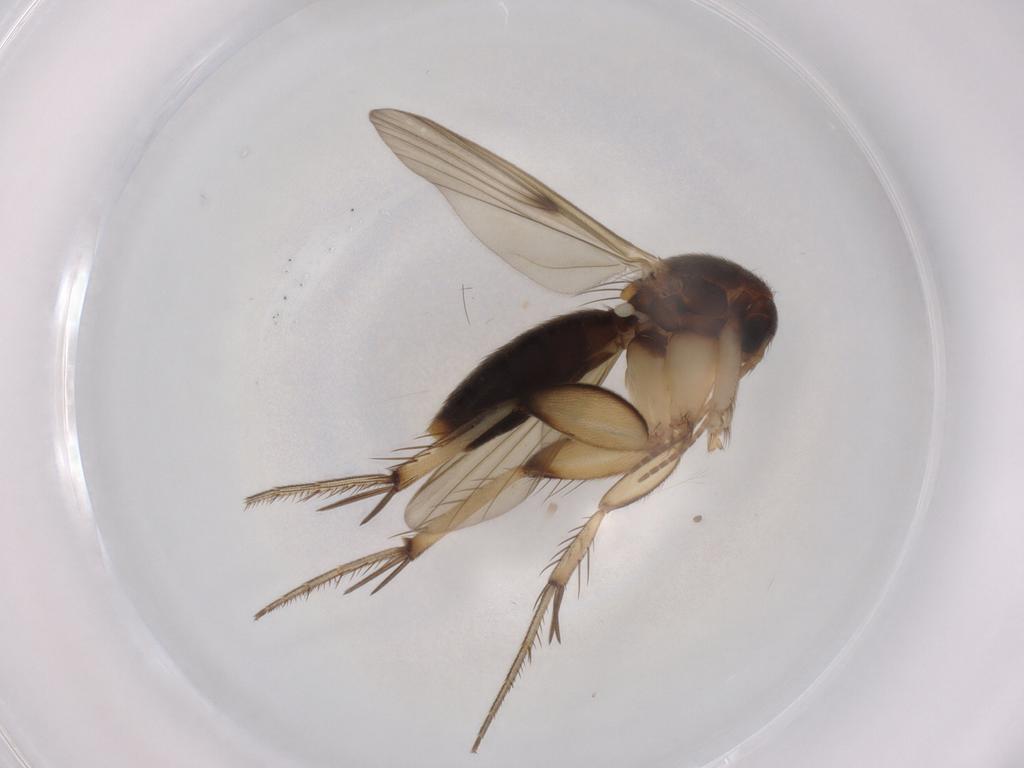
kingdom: Animalia
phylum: Arthropoda
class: Insecta
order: Diptera
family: Mycetophilidae
